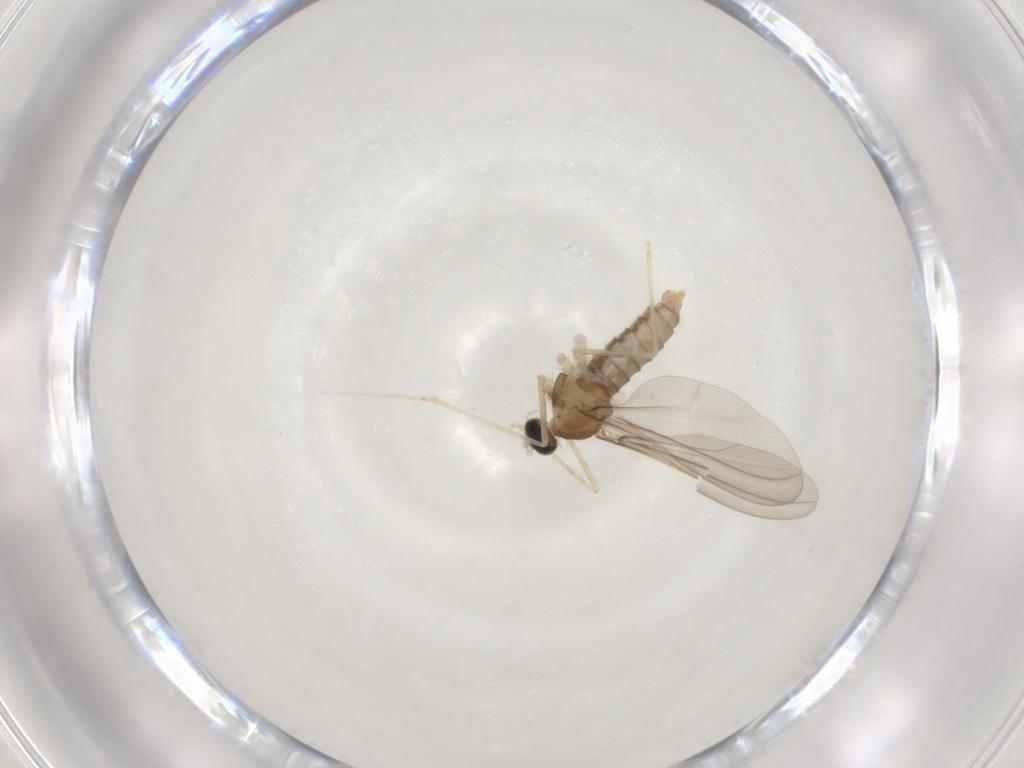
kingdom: Animalia
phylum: Arthropoda
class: Insecta
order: Diptera
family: Cecidomyiidae
